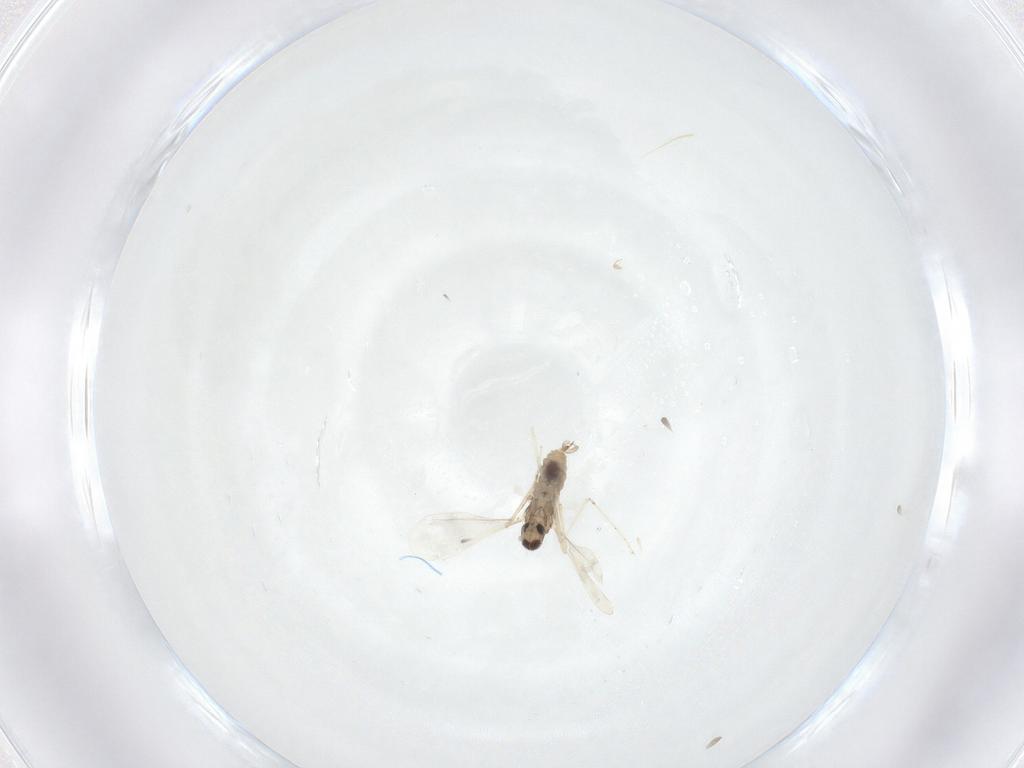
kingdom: Animalia
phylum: Arthropoda
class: Insecta
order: Diptera
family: Cecidomyiidae
